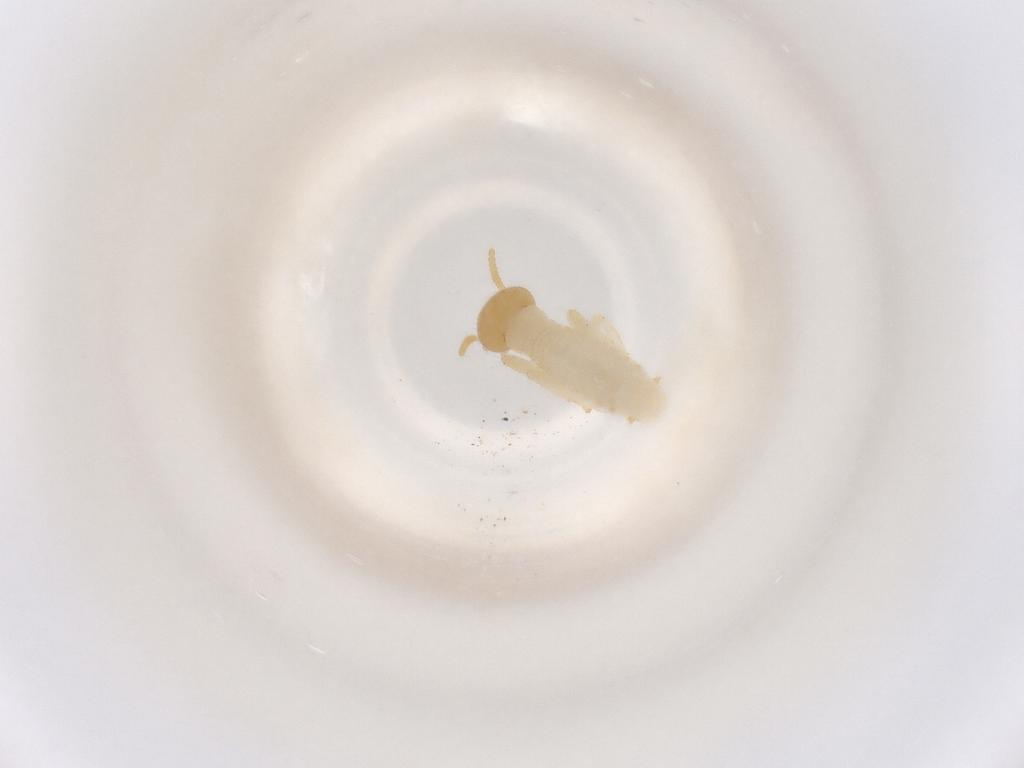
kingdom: Animalia
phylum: Arthropoda
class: Insecta
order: Blattodea
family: Termitidae
